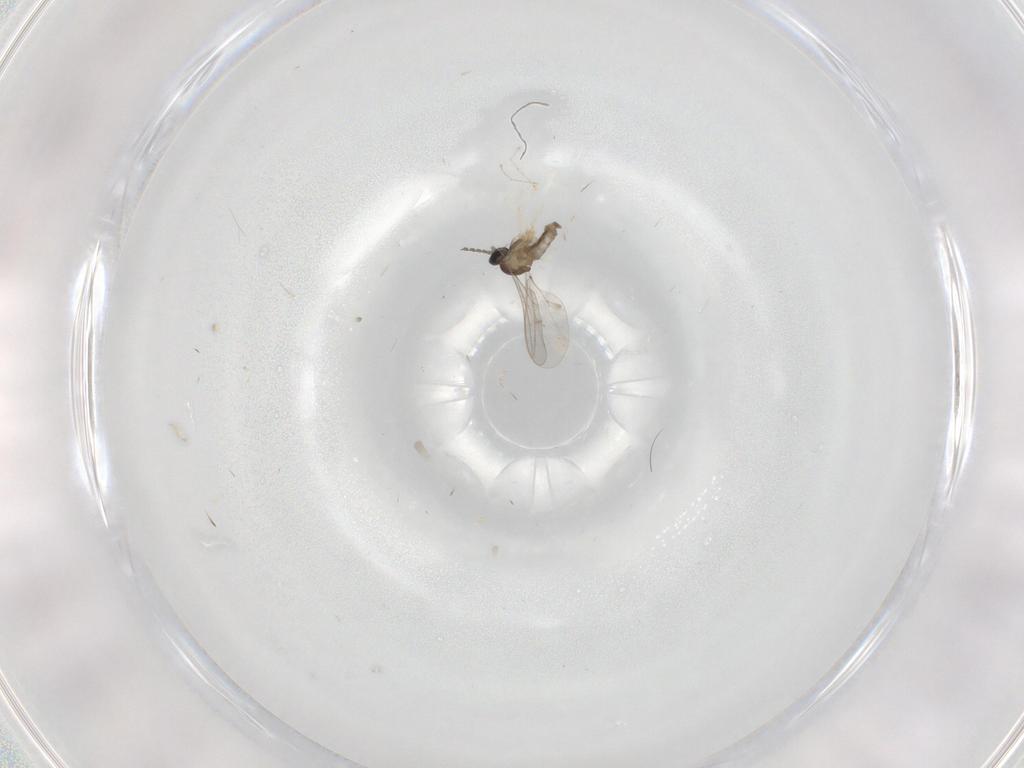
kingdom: Animalia
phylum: Arthropoda
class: Insecta
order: Diptera
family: Cecidomyiidae
